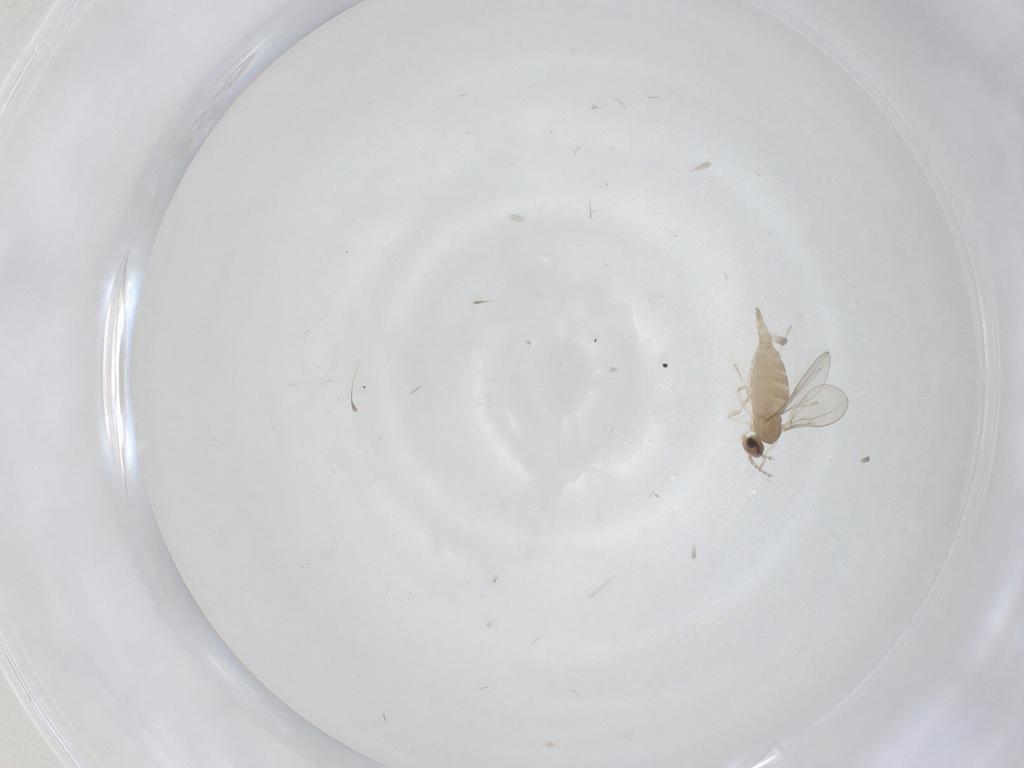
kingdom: Animalia
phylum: Arthropoda
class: Insecta
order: Diptera
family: Cecidomyiidae
